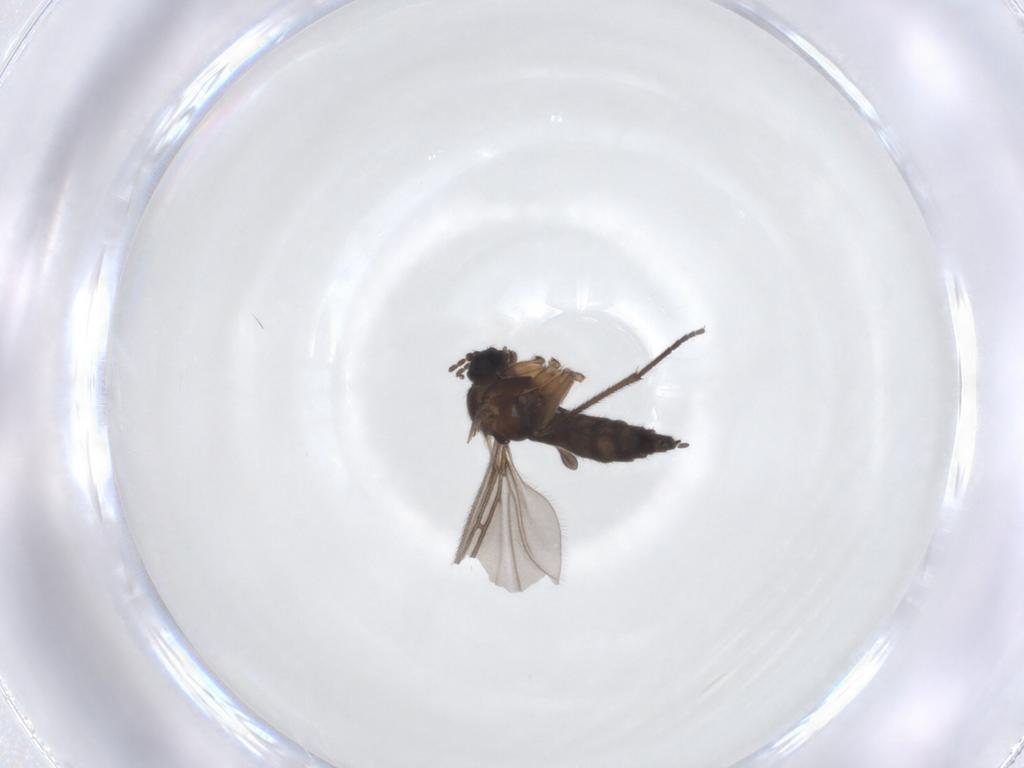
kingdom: Animalia
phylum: Arthropoda
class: Insecta
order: Diptera
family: Sciaridae
